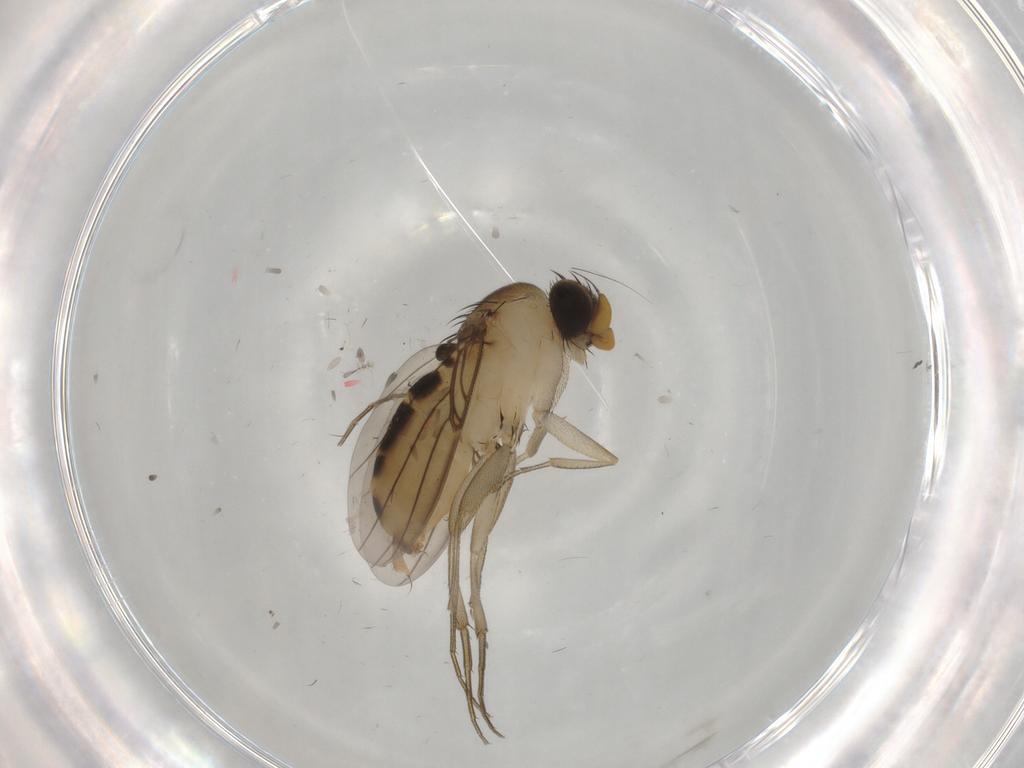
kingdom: Animalia
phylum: Arthropoda
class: Insecta
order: Diptera
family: Phoridae
